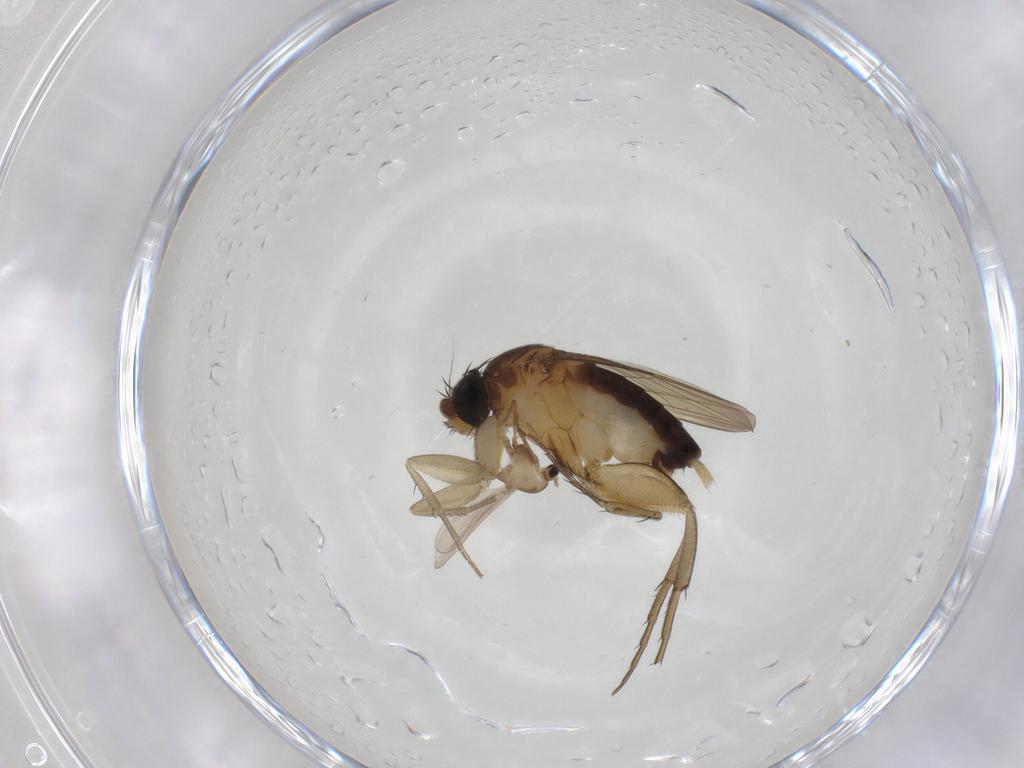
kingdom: Animalia
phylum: Arthropoda
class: Insecta
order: Diptera
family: Phoridae
